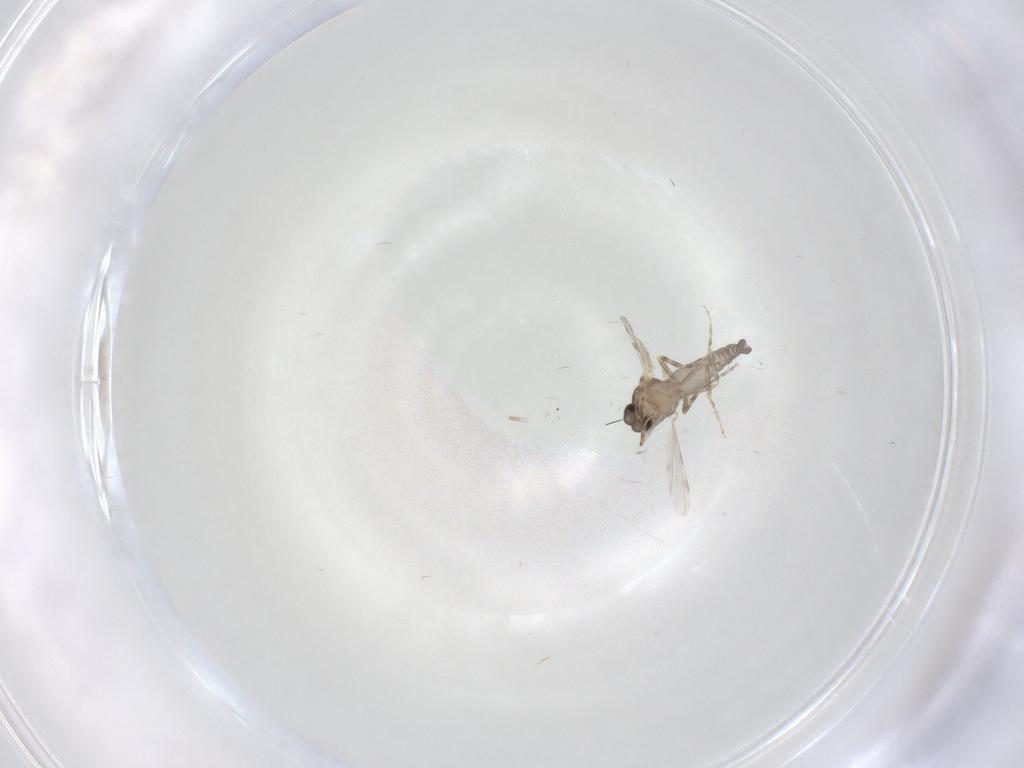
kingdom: Animalia
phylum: Arthropoda
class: Insecta
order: Diptera
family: Ceratopogonidae
